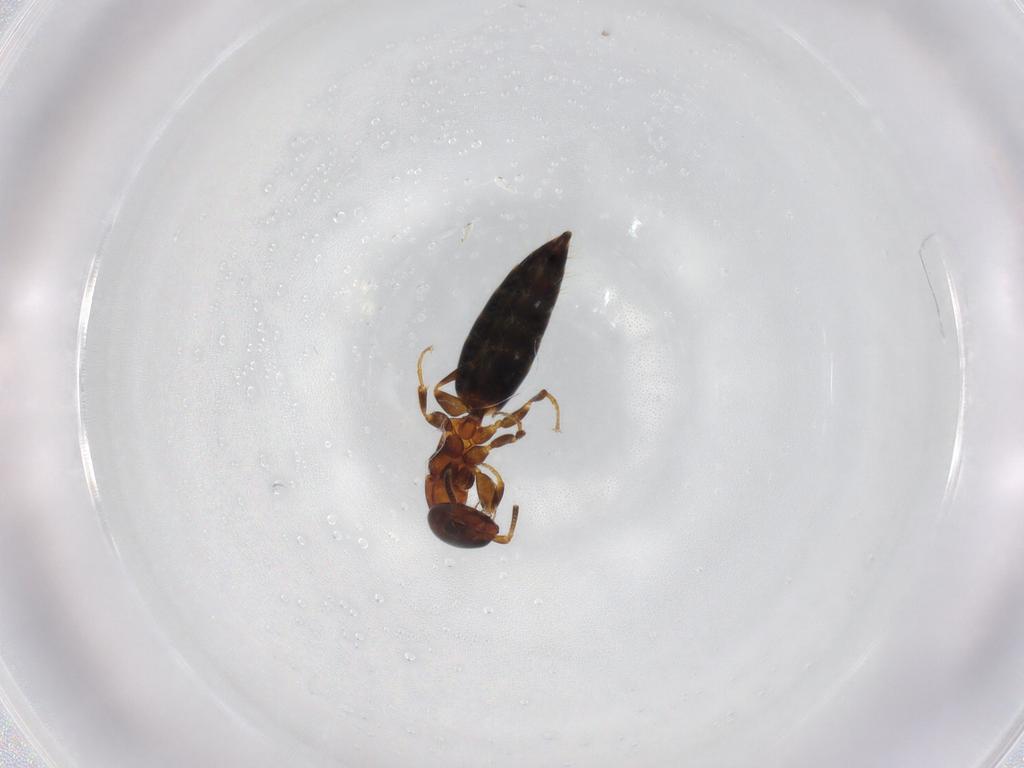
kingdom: Animalia
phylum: Arthropoda
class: Insecta
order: Hymenoptera
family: Bethylidae
